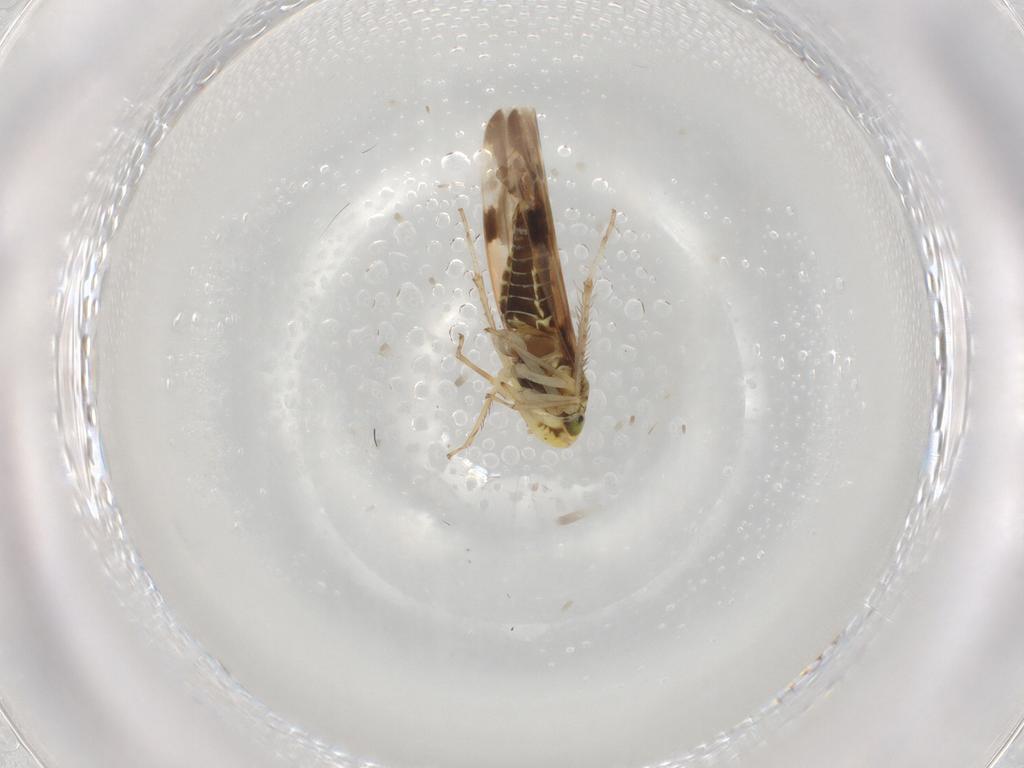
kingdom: Animalia
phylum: Arthropoda
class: Insecta
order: Hemiptera
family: Cicadellidae
